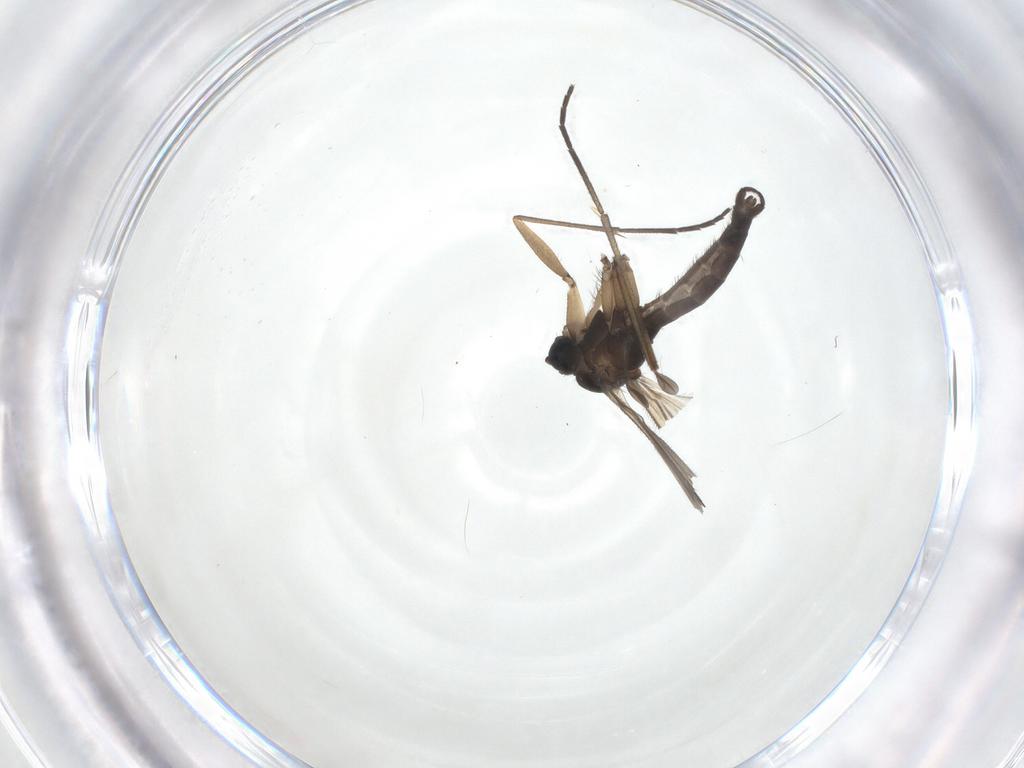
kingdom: Animalia
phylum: Arthropoda
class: Insecta
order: Diptera
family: Sciaridae
